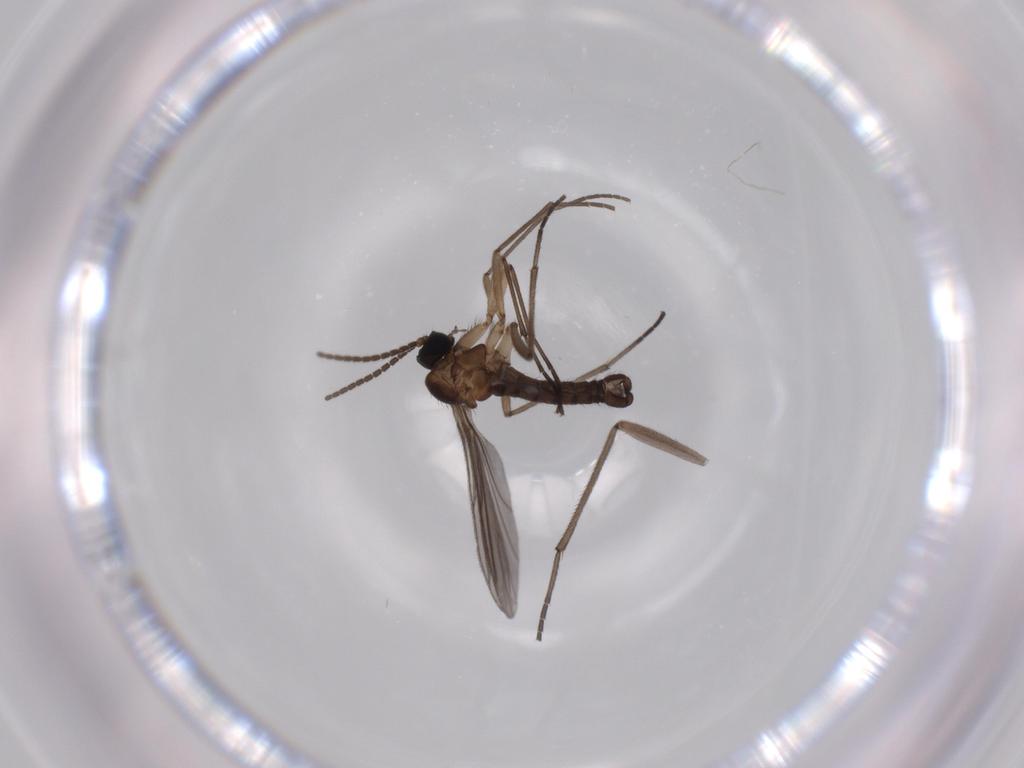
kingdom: Animalia
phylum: Arthropoda
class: Insecta
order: Diptera
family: Sciaridae
